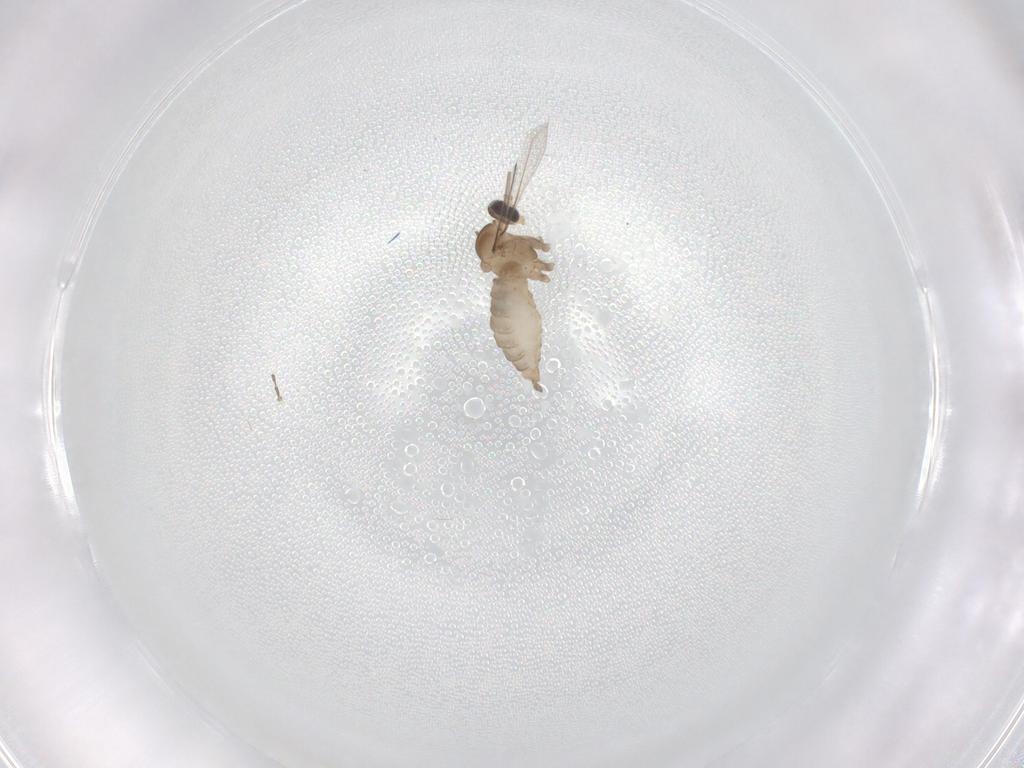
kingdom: Animalia
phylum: Arthropoda
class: Insecta
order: Diptera
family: Cecidomyiidae
